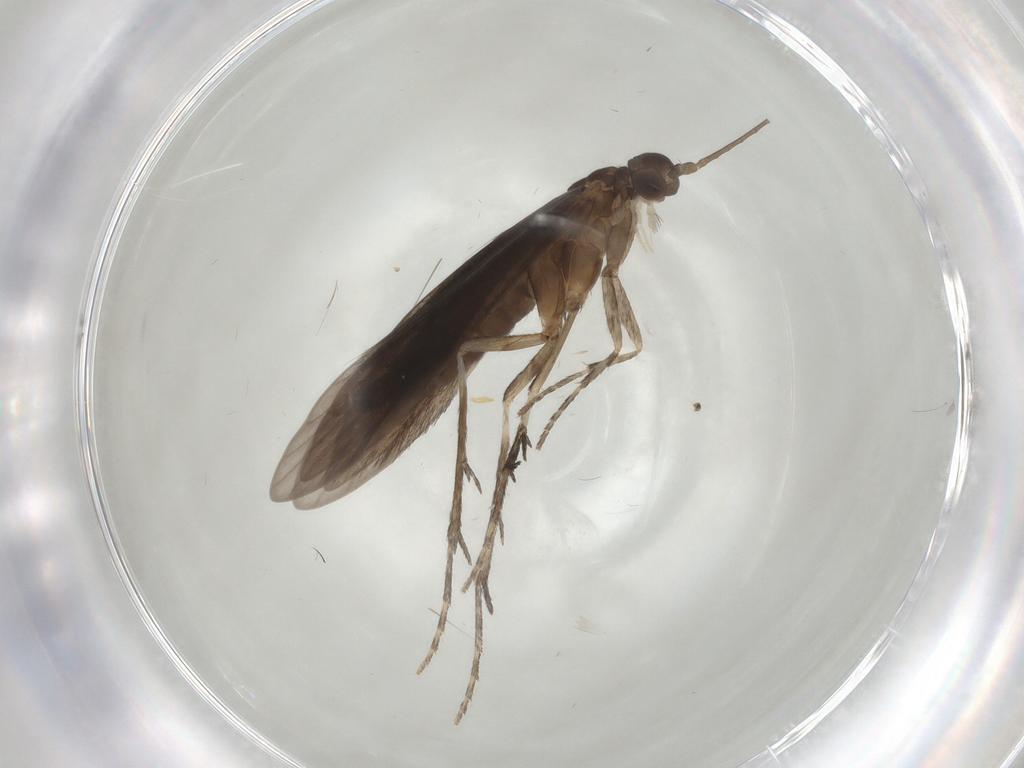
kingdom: Animalia
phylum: Arthropoda
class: Insecta
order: Trichoptera
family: Xiphocentronidae
